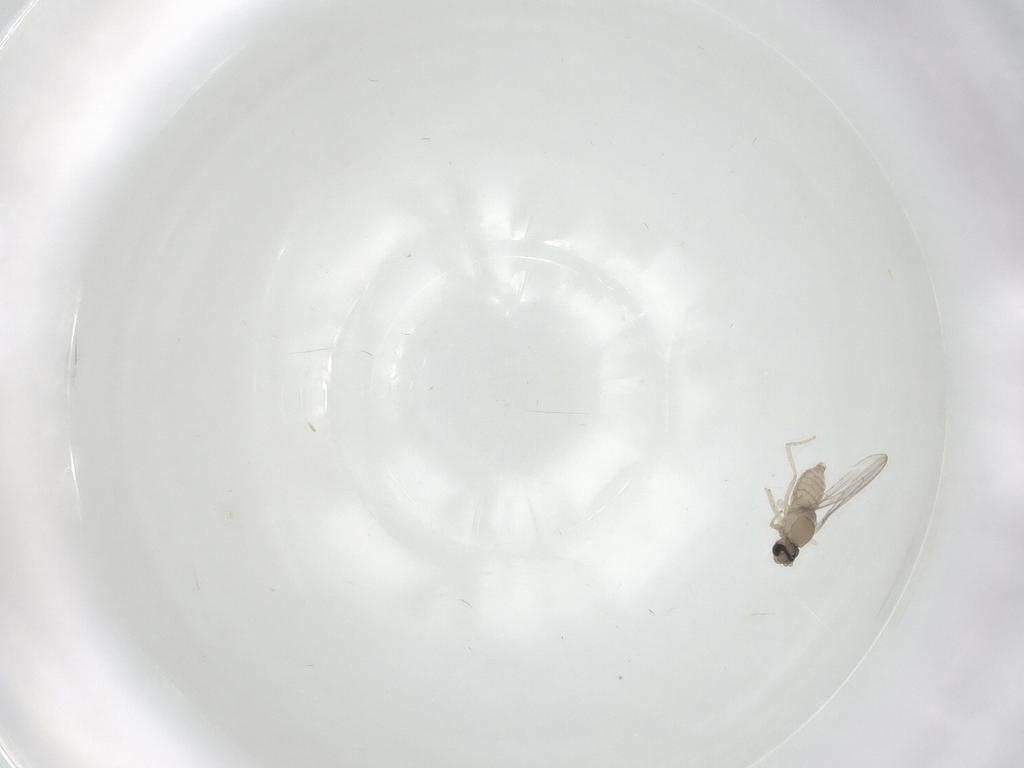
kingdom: Animalia
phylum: Arthropoda
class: Insecta
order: Diptera
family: Cecidomyiidae
